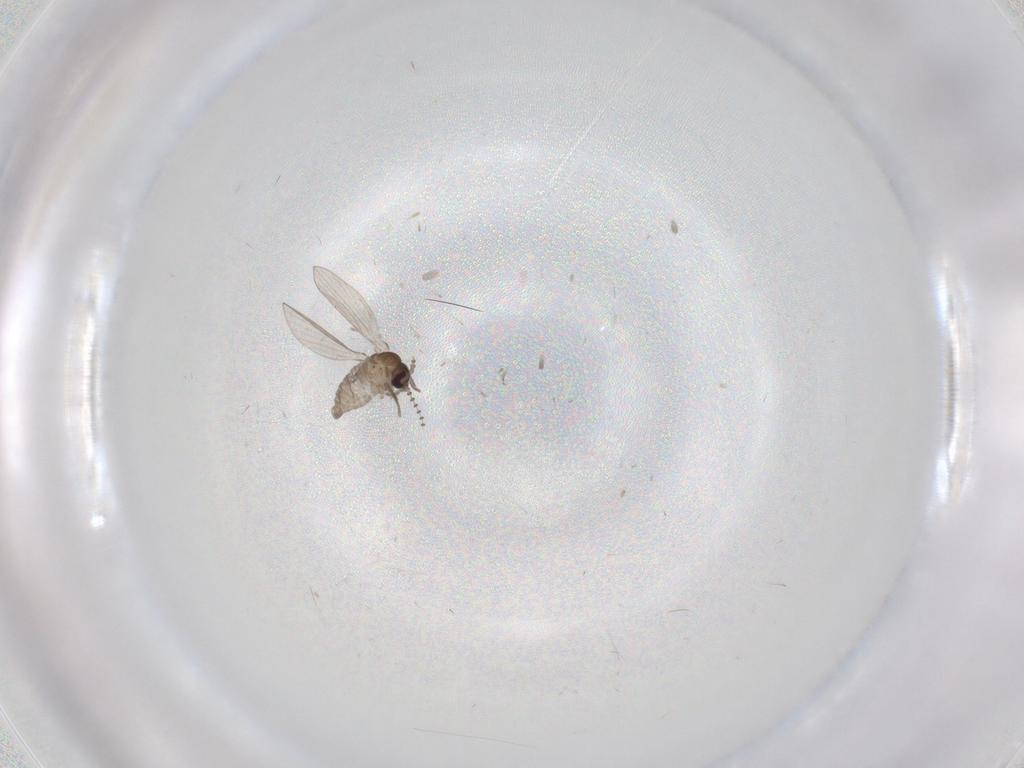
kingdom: Animalia
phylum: Arthropoda
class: Insecta
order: Diptera
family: Psychodidae
